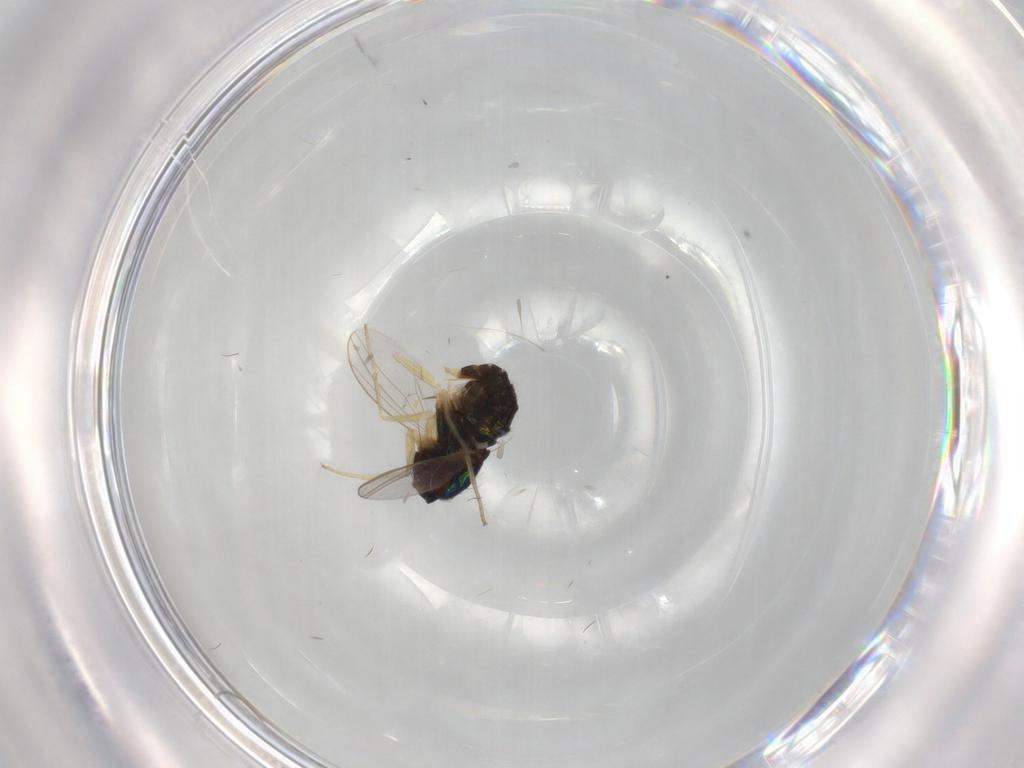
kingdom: Animalia
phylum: Arthropoda
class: Insecta
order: Diptera
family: Dolichopodidae
